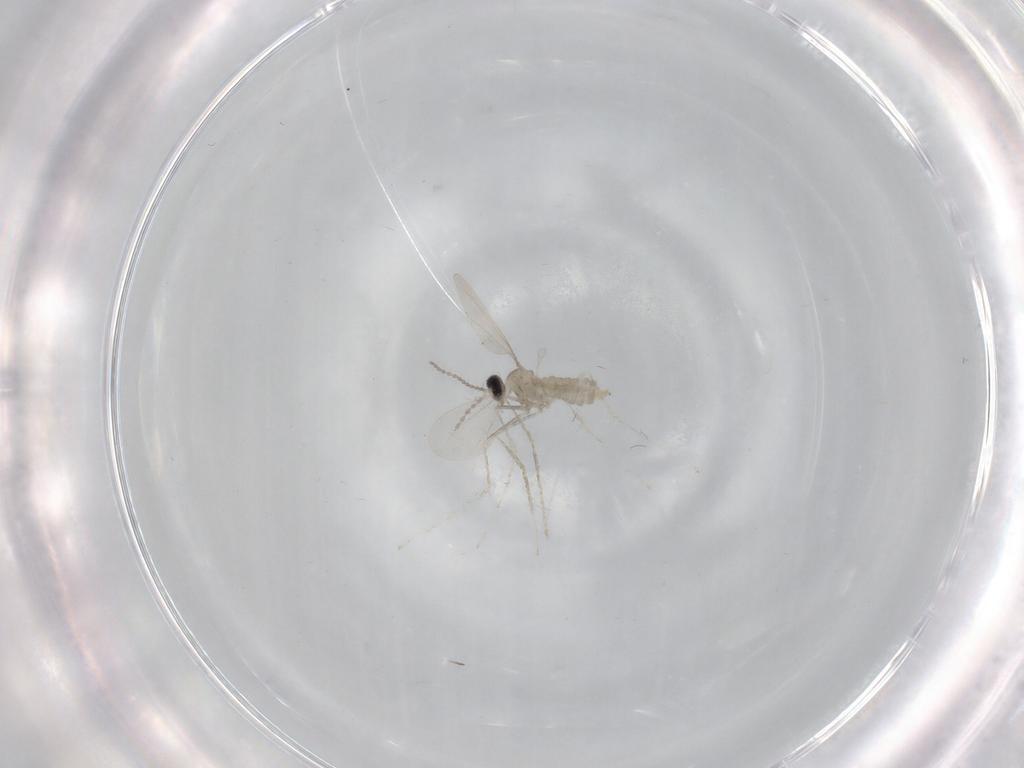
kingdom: Animalia
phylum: Arthropoda
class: Insecta
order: Diptera
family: Cecidomyiidae
